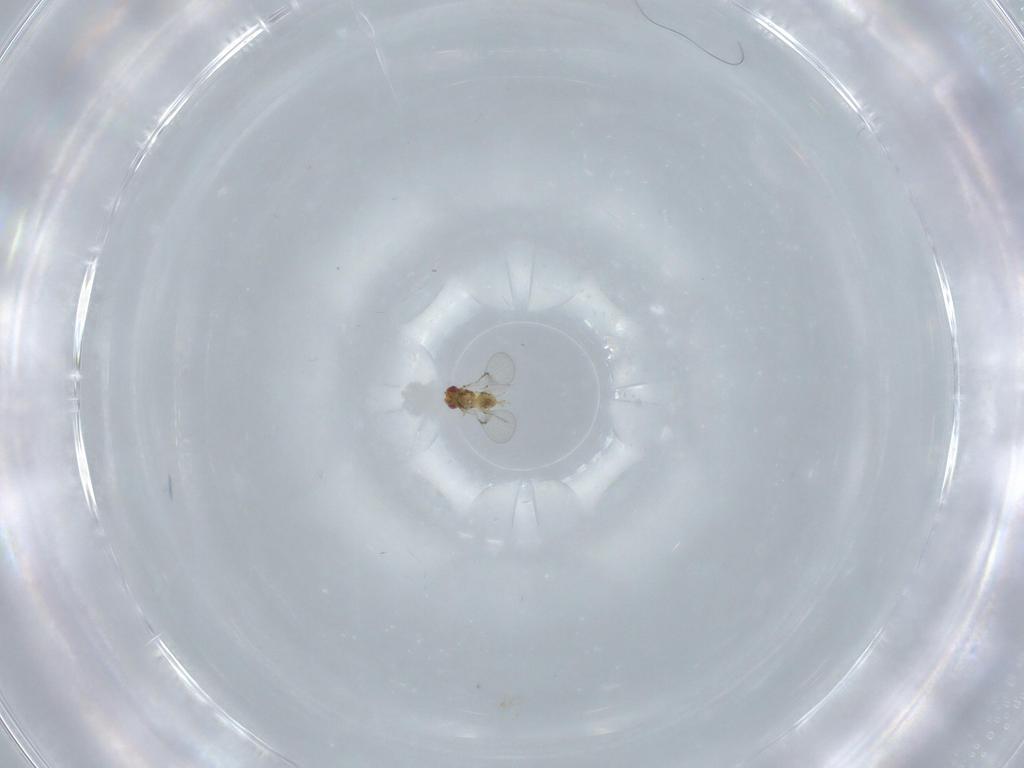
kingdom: Animalia
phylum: Arthropoda
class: Insecta
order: Hymenoptera
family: Trichogrammatidae
